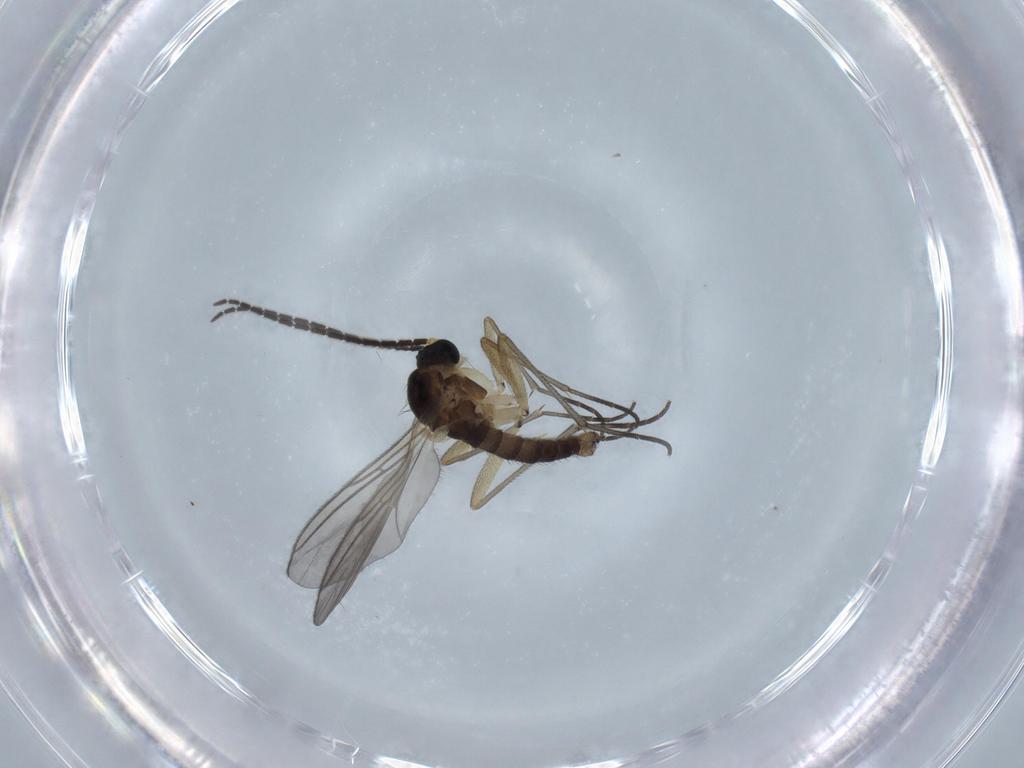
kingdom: Animalia
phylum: Arthropoda
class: Insecta
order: Diptera
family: Sciaridae
